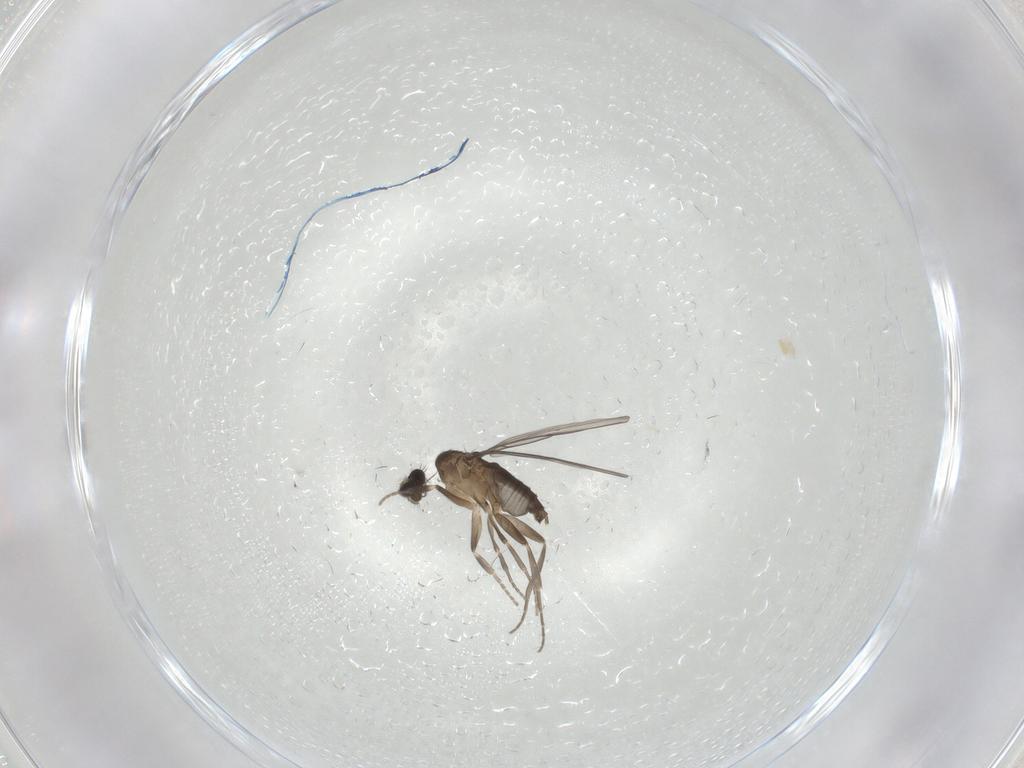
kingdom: Animalia
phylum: Arthropoda
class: Insecta
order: Diptera
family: Phoridae
